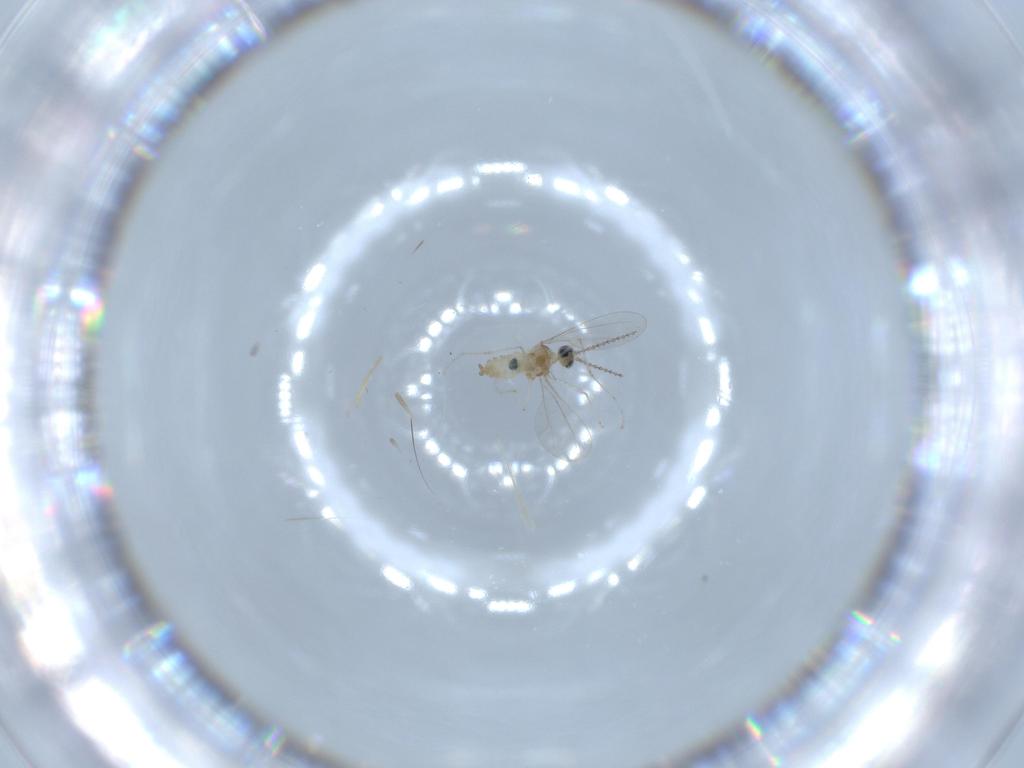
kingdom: Animalia
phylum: Arthropoda
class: Insecta
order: Diptera
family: Cecidomyiidae
